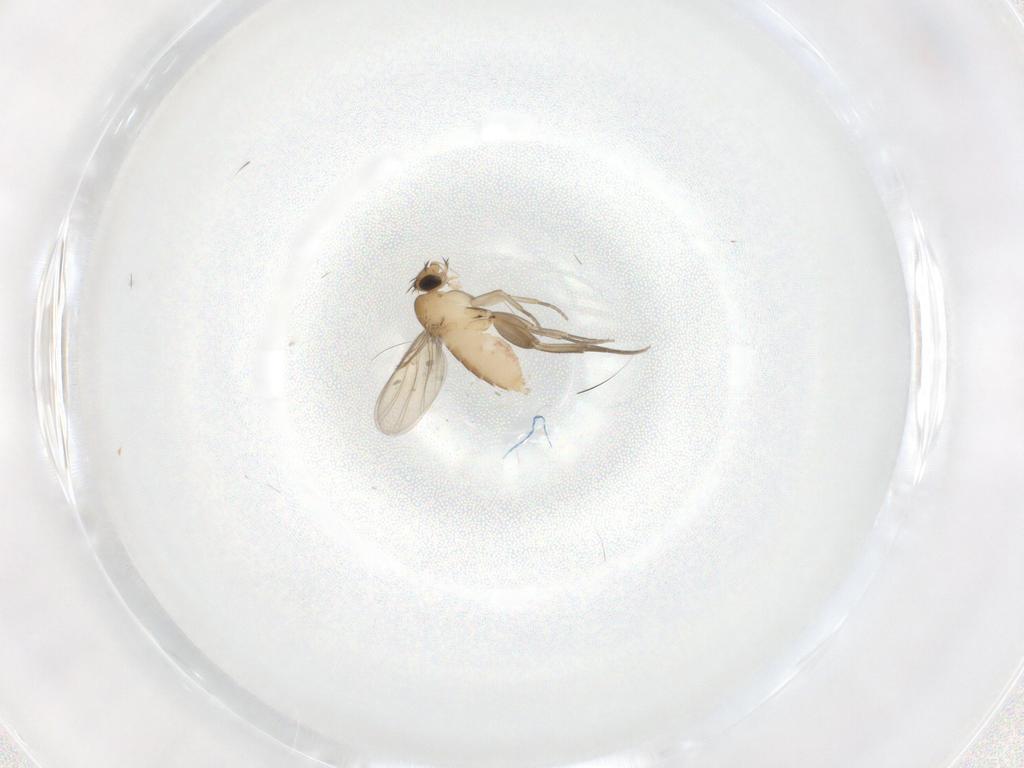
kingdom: Animalia
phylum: Arthropoda
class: Insecta
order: Diptera
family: Phoridae
